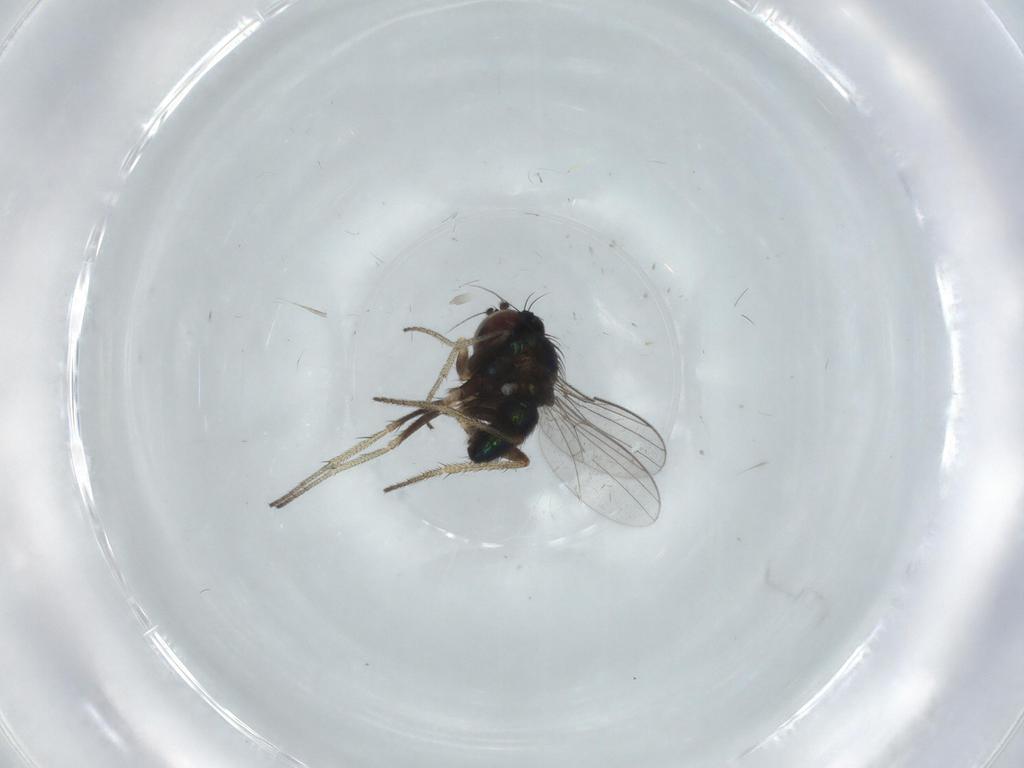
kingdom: Animalia
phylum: Arthropoda
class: Insecta
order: Diptera
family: Dolichopodidae
